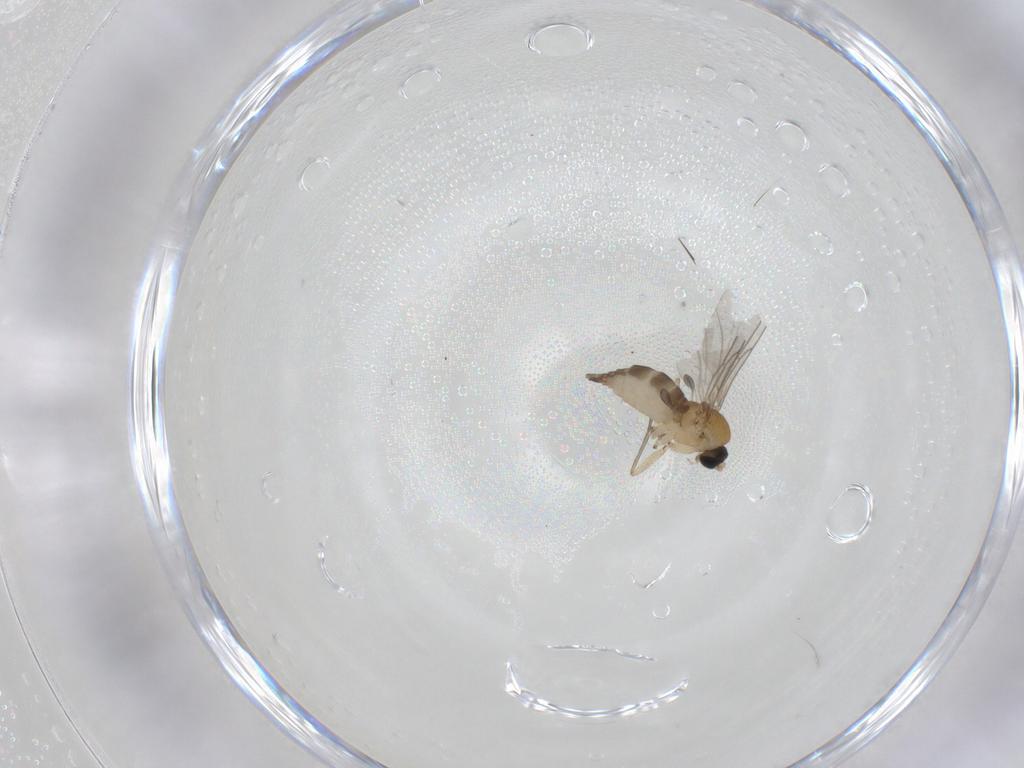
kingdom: Animalia
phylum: Arthropoda
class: Insecta
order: Diptera
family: Sciaridae
